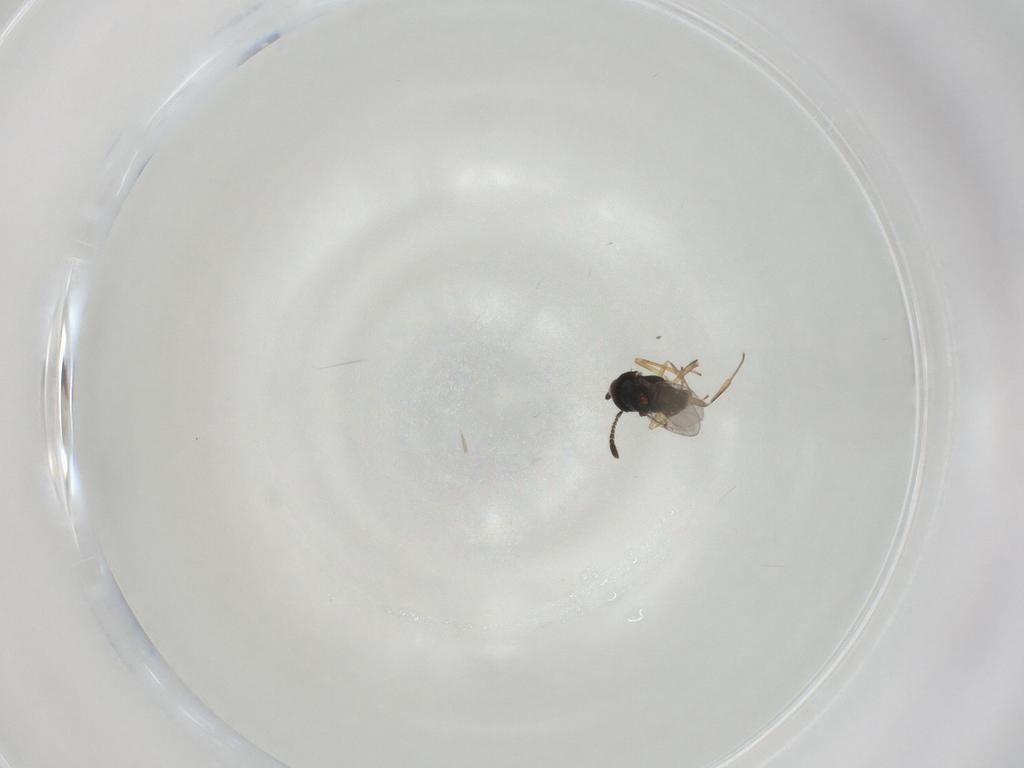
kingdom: Animalia
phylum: Arthropoda
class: Insecta
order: Hymenoptera
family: Encyrtidae
